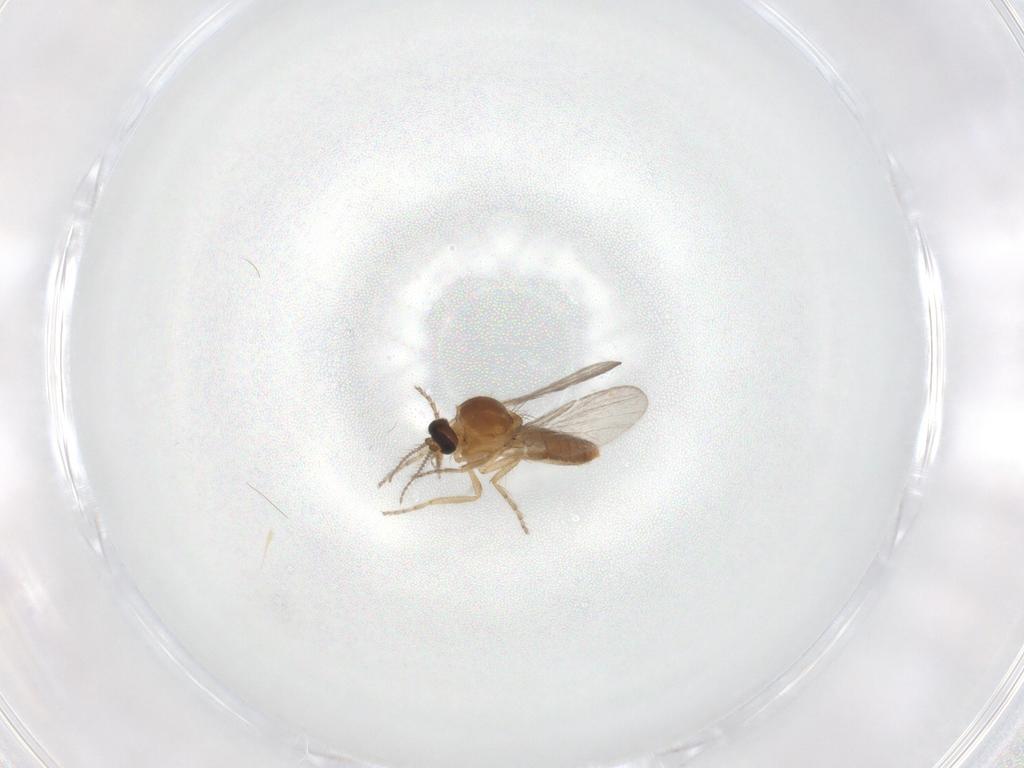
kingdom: Animalia
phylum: Arthropoda
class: Insecta
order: Diptera
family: Ceratopogonidae
